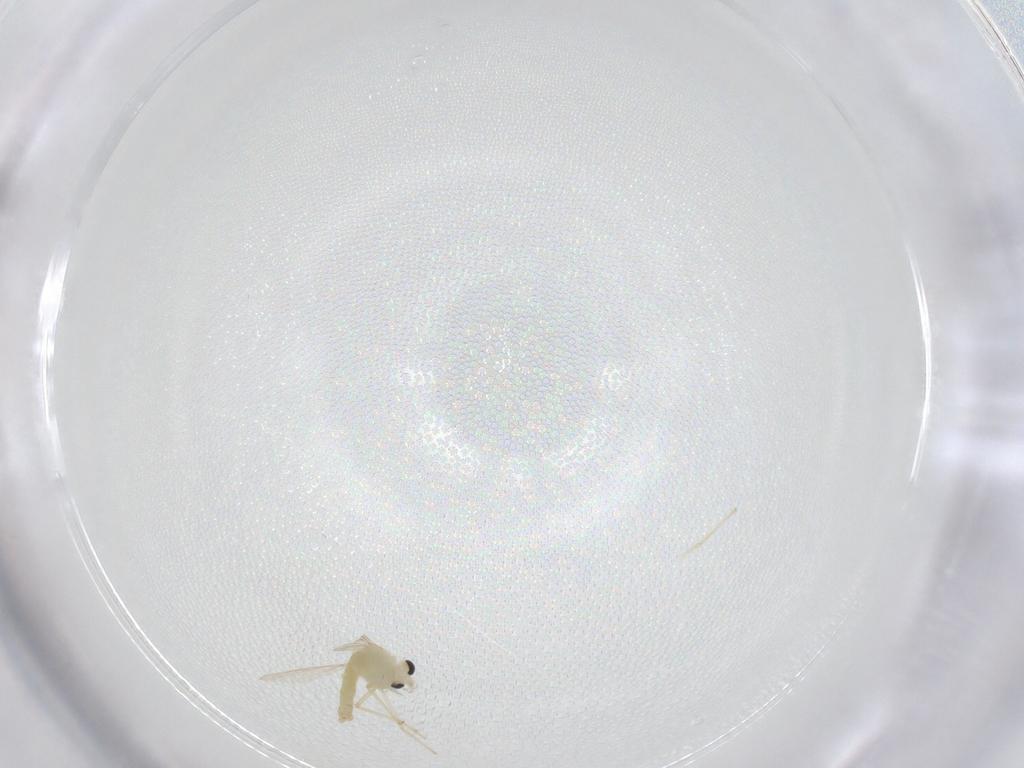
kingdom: Animalia
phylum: Arthropoda
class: Insecta
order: Diptera
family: Chironomidae
